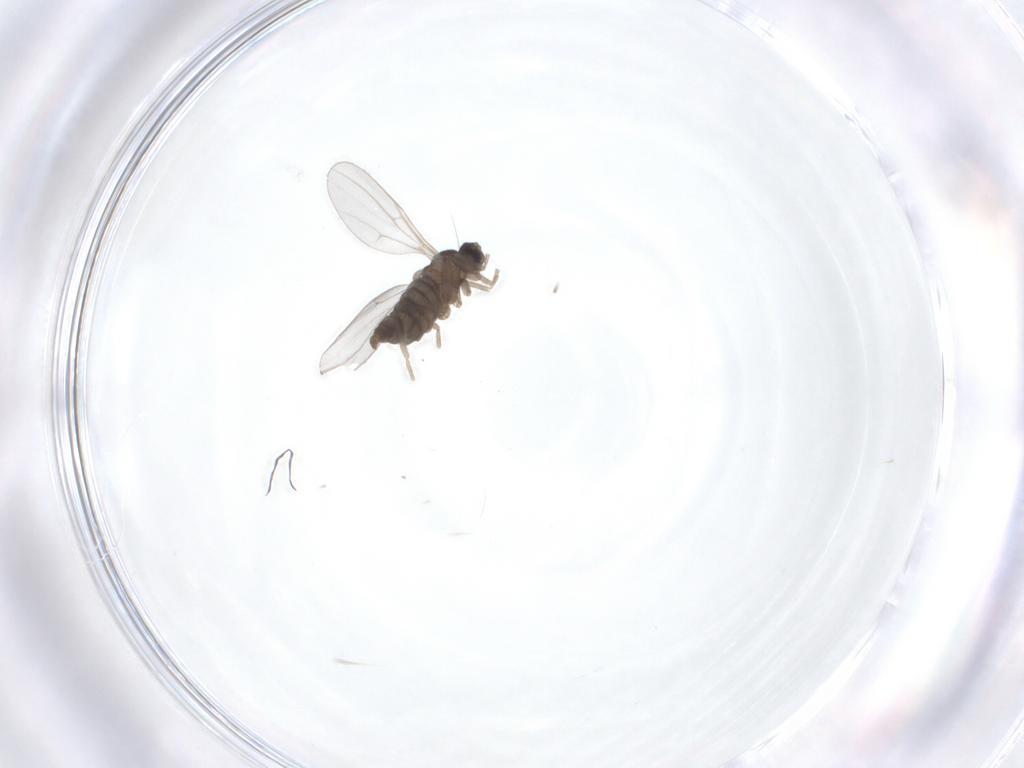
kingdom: Animalia
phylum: Arthropoda
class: Insecta
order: Diptera
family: Cecidomyiidae
